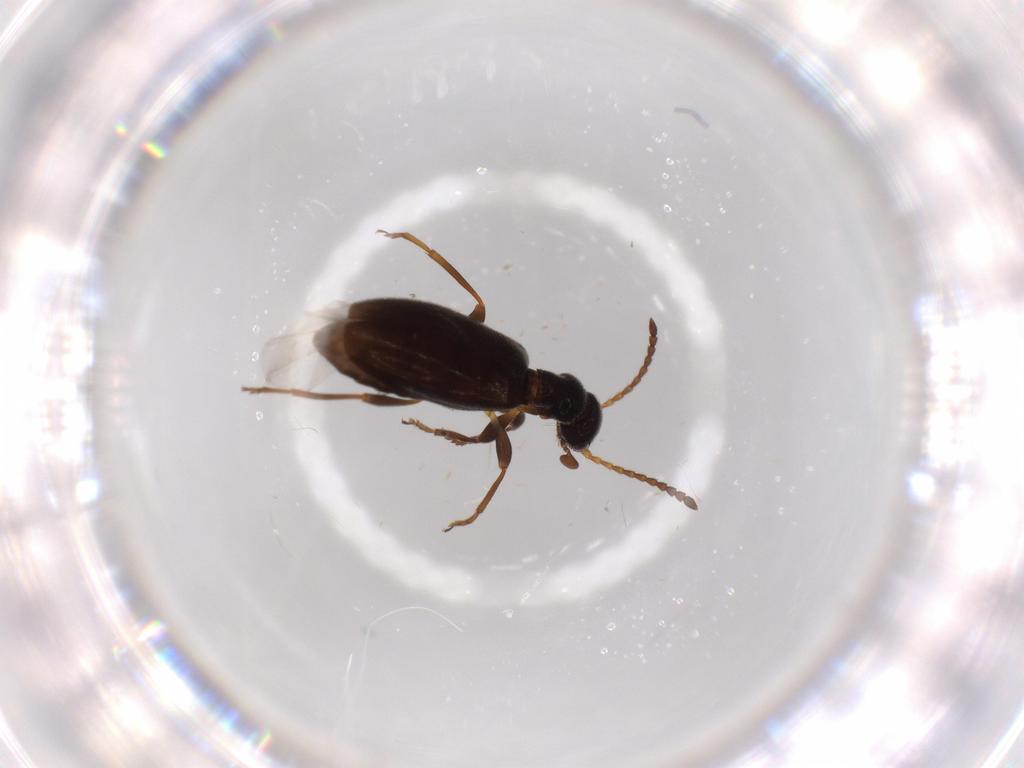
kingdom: Animalia
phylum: Arthropoda
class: Insecta
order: Coleoptera
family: Anthicidae
